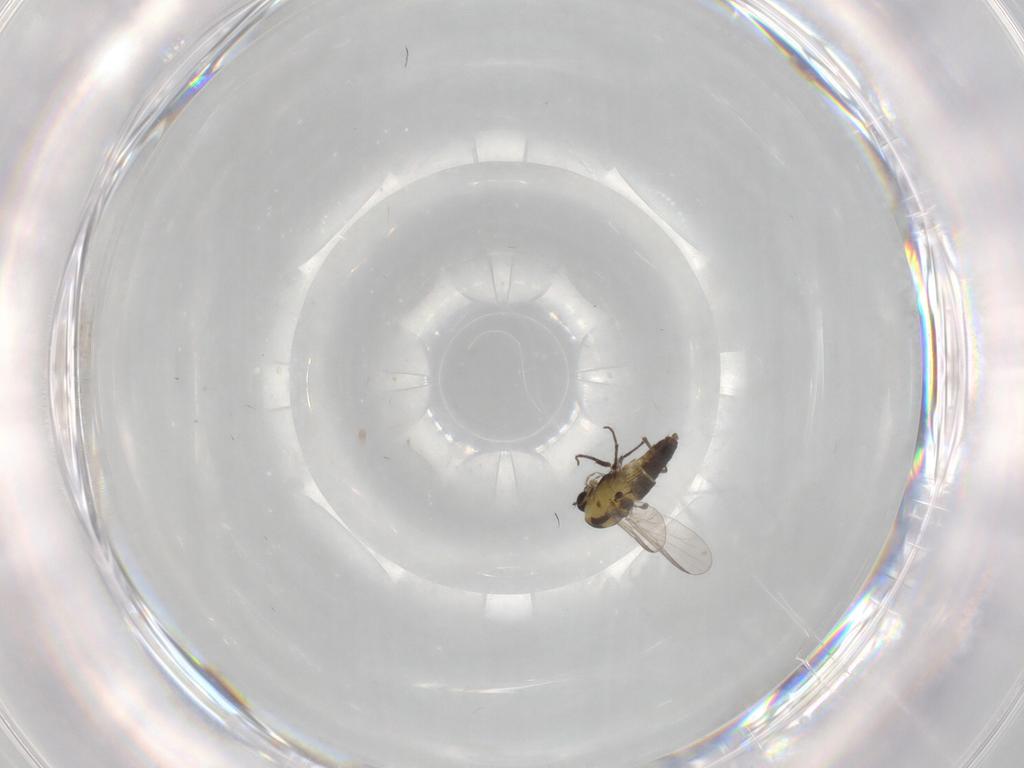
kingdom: Animalia
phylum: Arthropoda
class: Insecta
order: Diptera
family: Chironomidae
